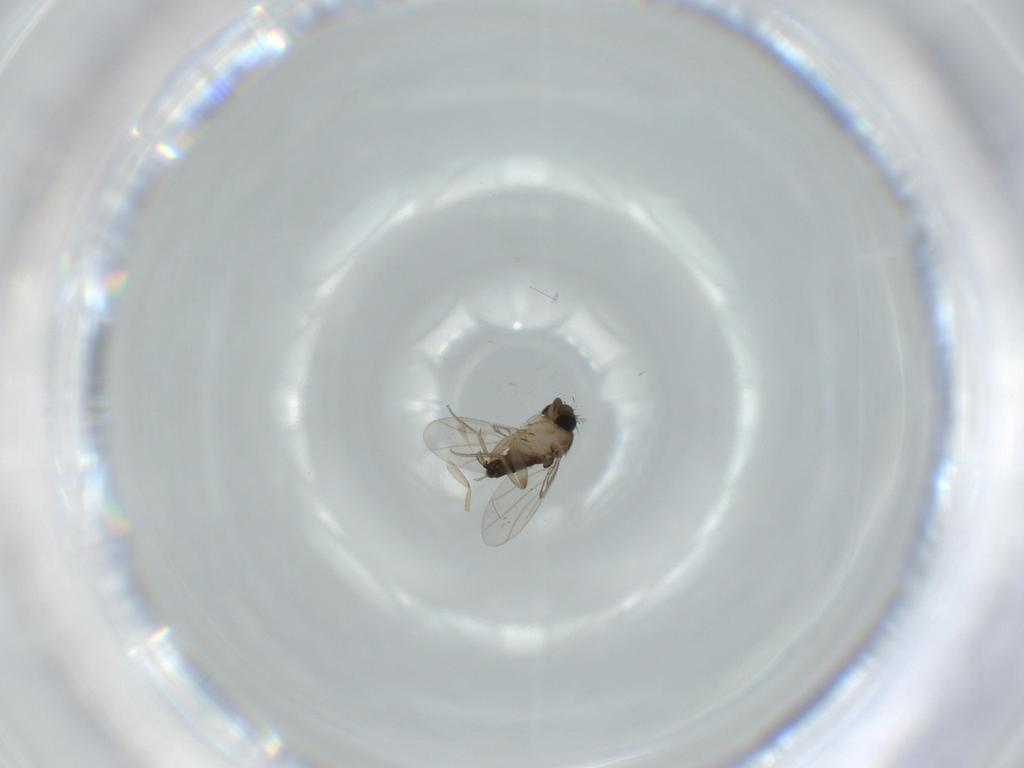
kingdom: Animalia
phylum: Arthropoda
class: Insecta
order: Diptera
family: Phoridae
